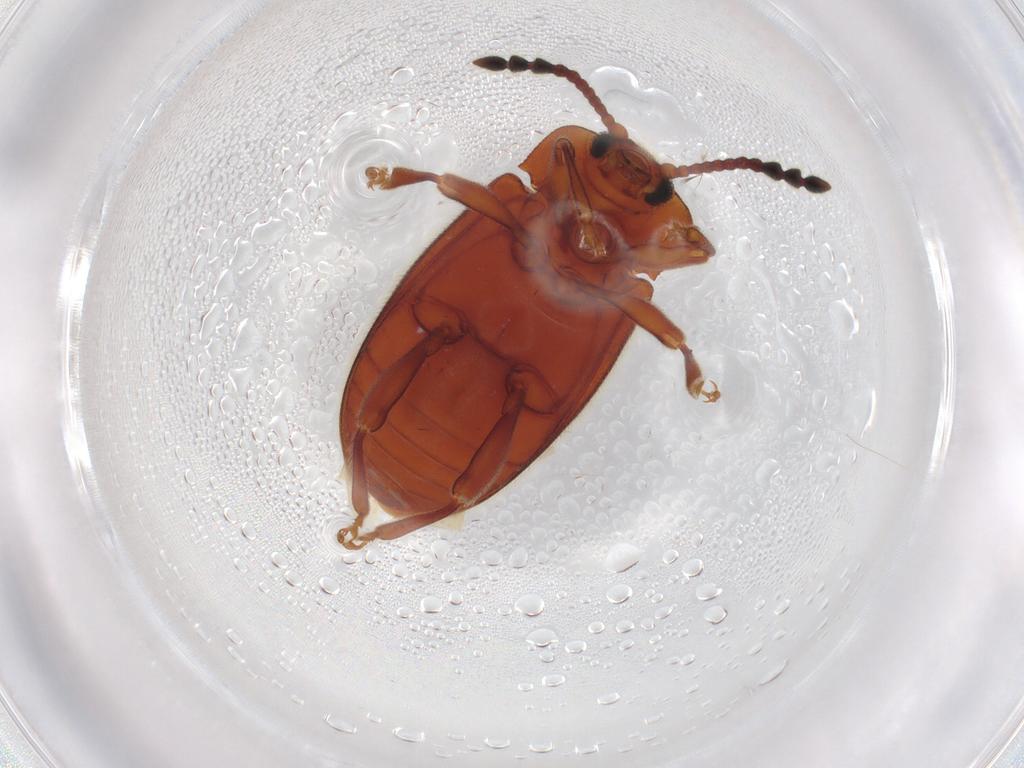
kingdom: Animalia
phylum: Arthropoda
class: Insecta
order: Coleoptera
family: Endomychidae
